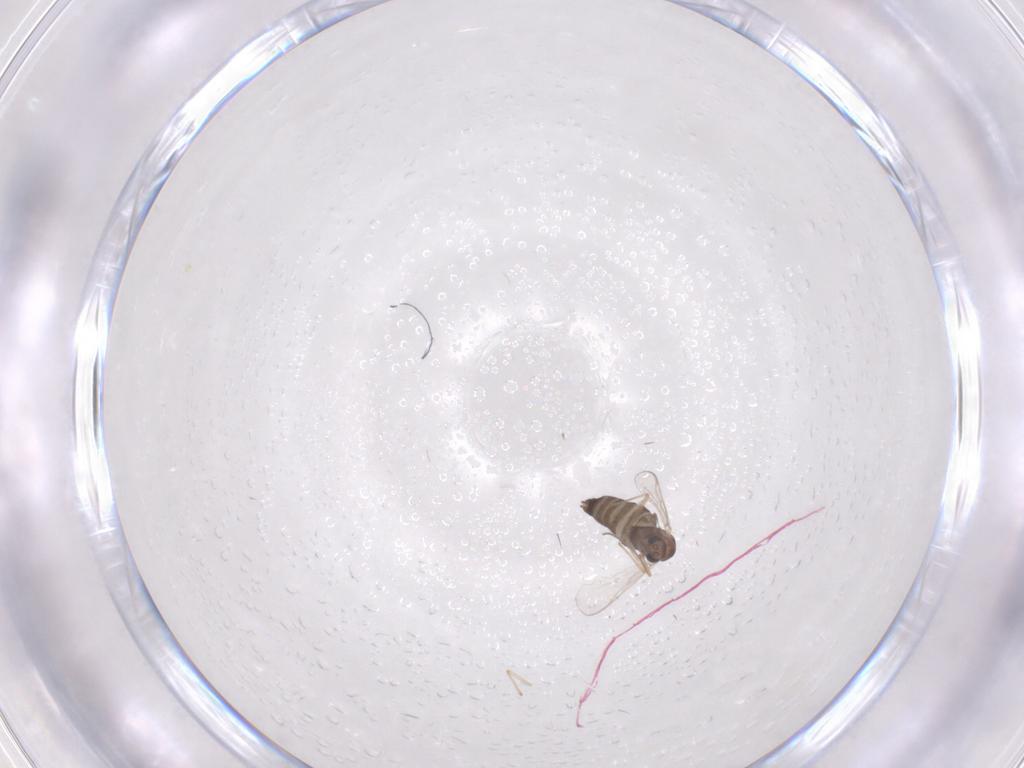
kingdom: Animalia
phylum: Arthropoda
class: Insecta
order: Diptera
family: Chironomidae
